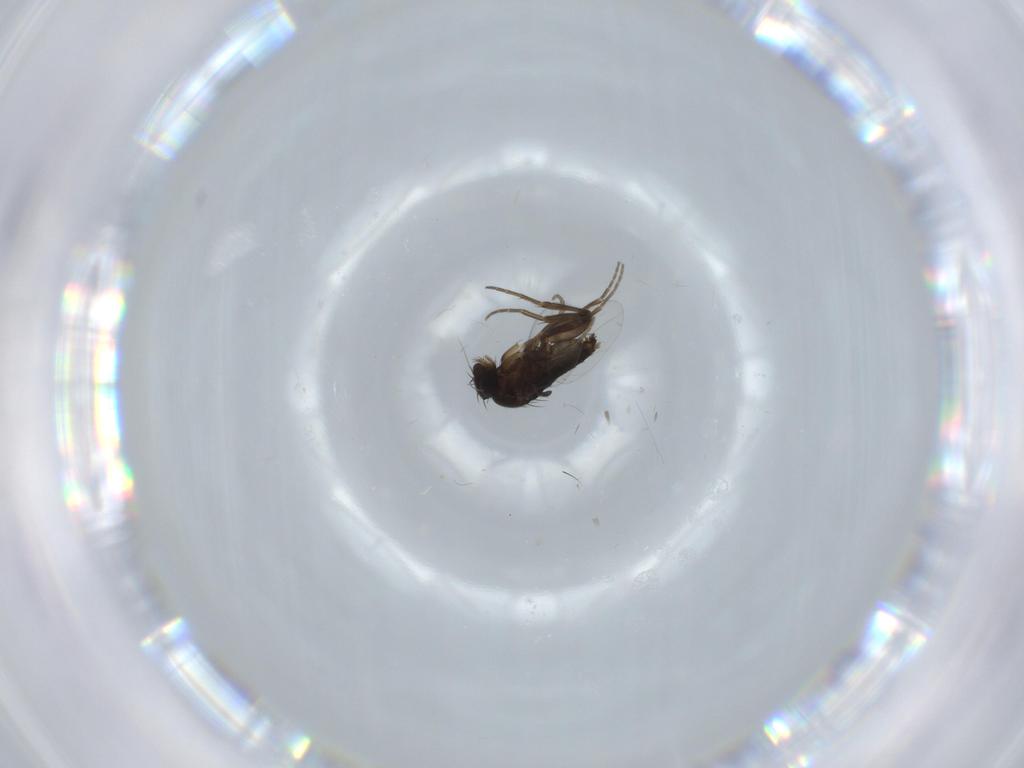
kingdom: Animalia
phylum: Arthropoda
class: Insecta
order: Diptera
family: Phoridae
